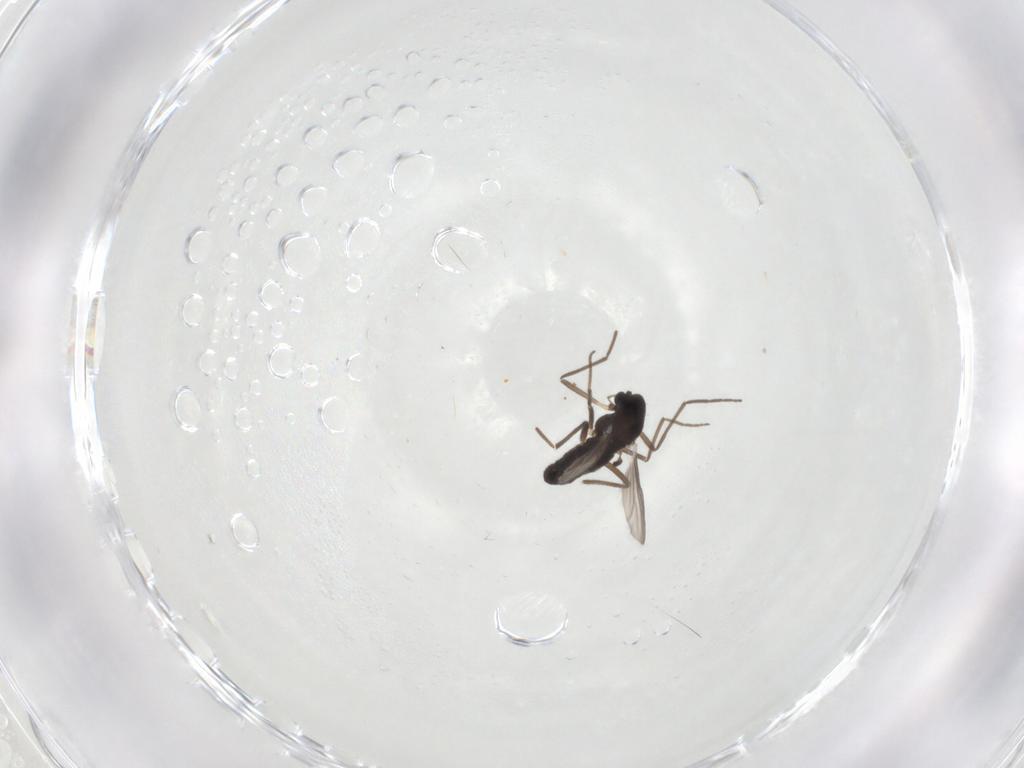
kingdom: Animalia
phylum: Arthropoda
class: Insecta
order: Diptera
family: Chironomidae
